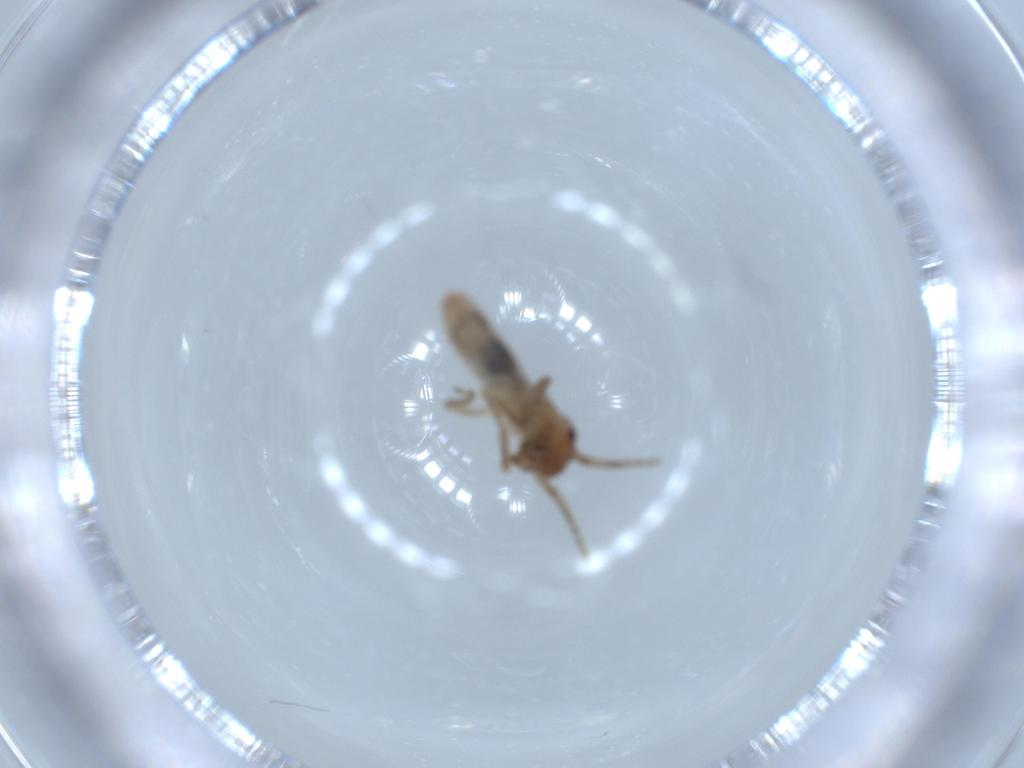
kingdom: Animalia
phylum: Arthropoda
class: Insecta
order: Orthoptera
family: Mogoplistidae
